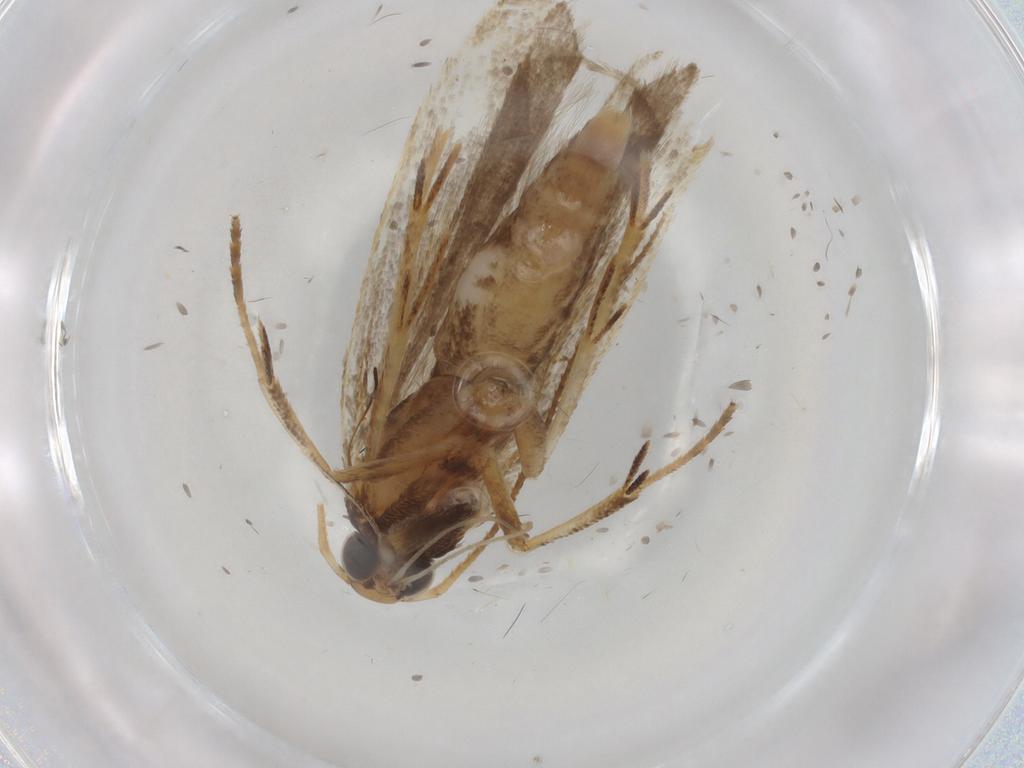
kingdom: Animalia
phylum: Arthropoda
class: Insecta
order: Lepidoptera
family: Gelechiidae
